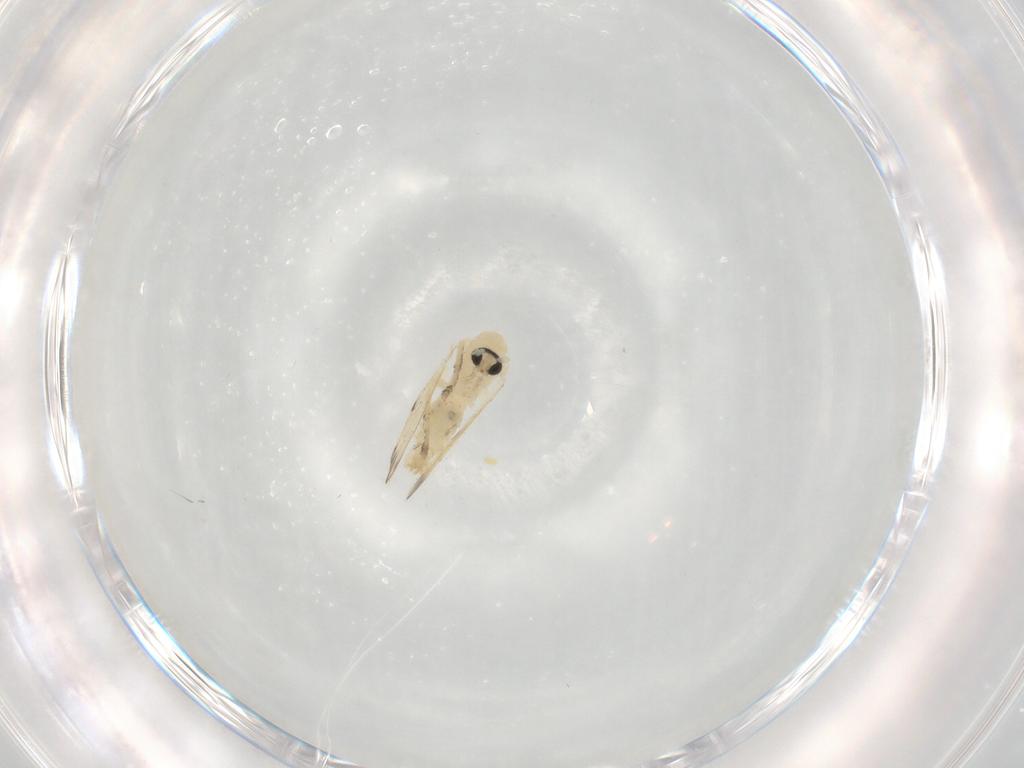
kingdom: Animalia
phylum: Arthropoda
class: Insecta
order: Diptera
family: Psychodidae
